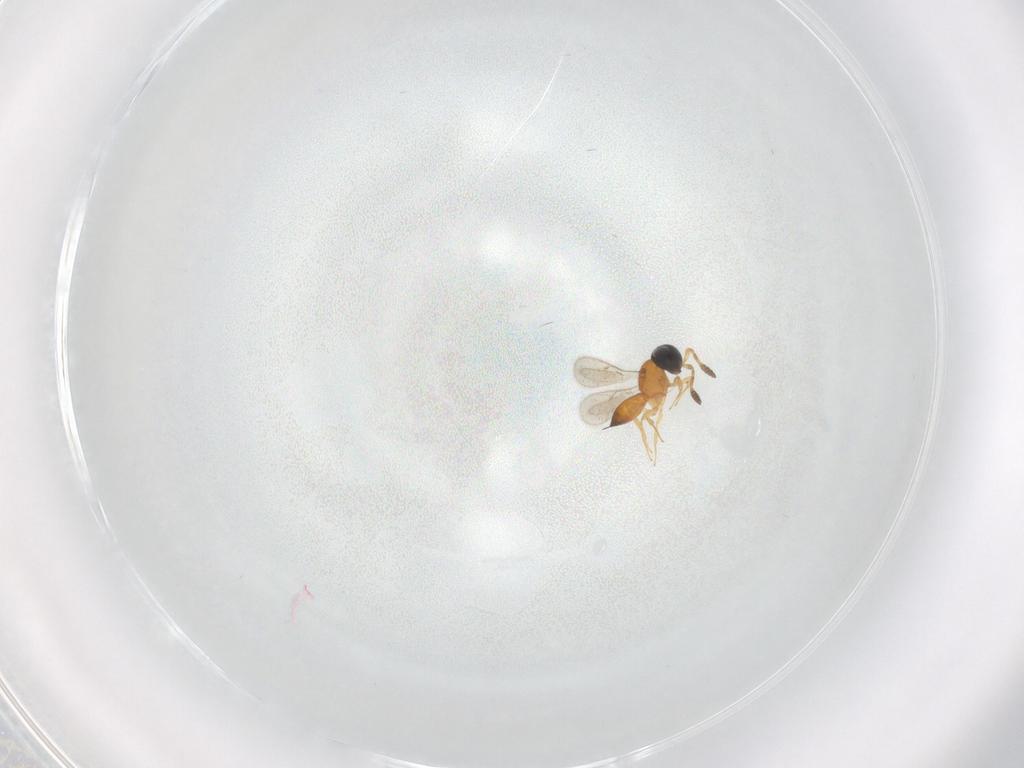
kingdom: Animalia
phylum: Arthropoda
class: Insecta
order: Hymenoptera
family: Scelionidae
